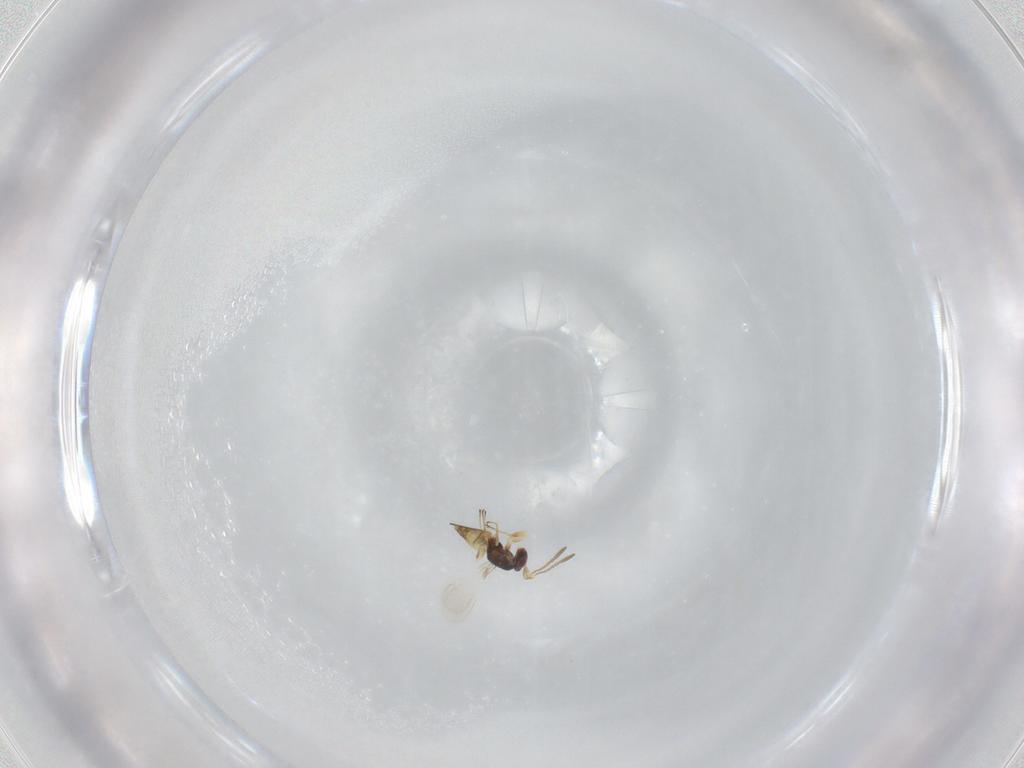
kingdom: Animalia
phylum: Arthropoda
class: Insecta
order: Hymenoptera
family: Mymaridae
